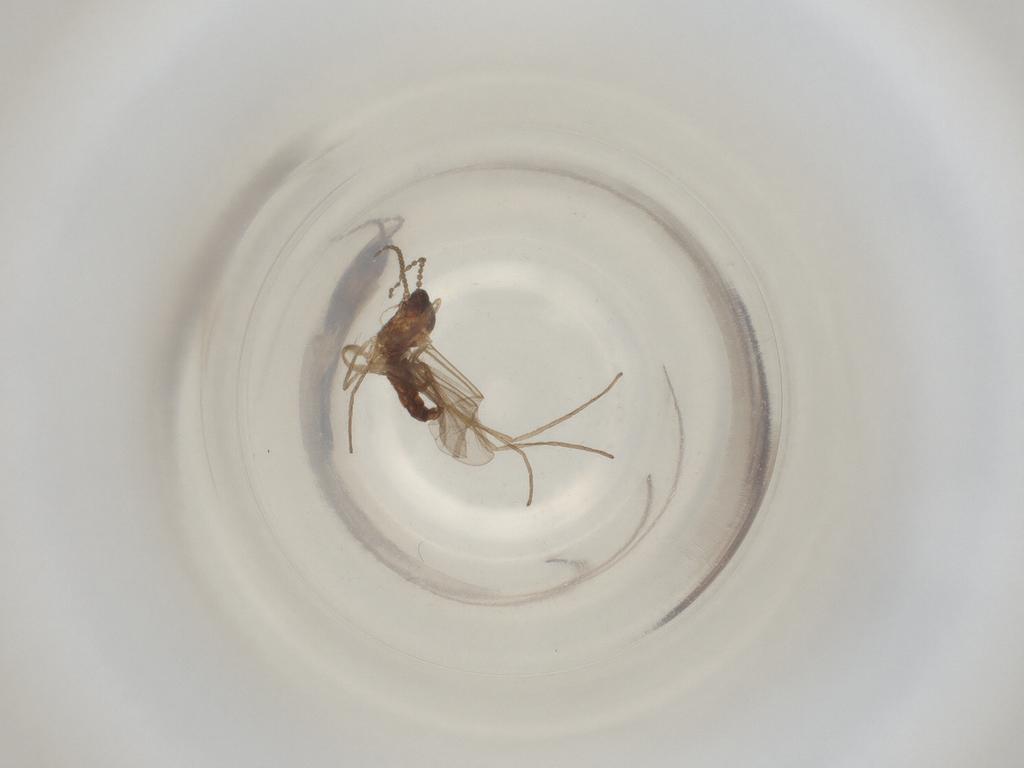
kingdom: Animalia
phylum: Arthropoda
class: Insecta
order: Diptera
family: Cecidomyiidae
